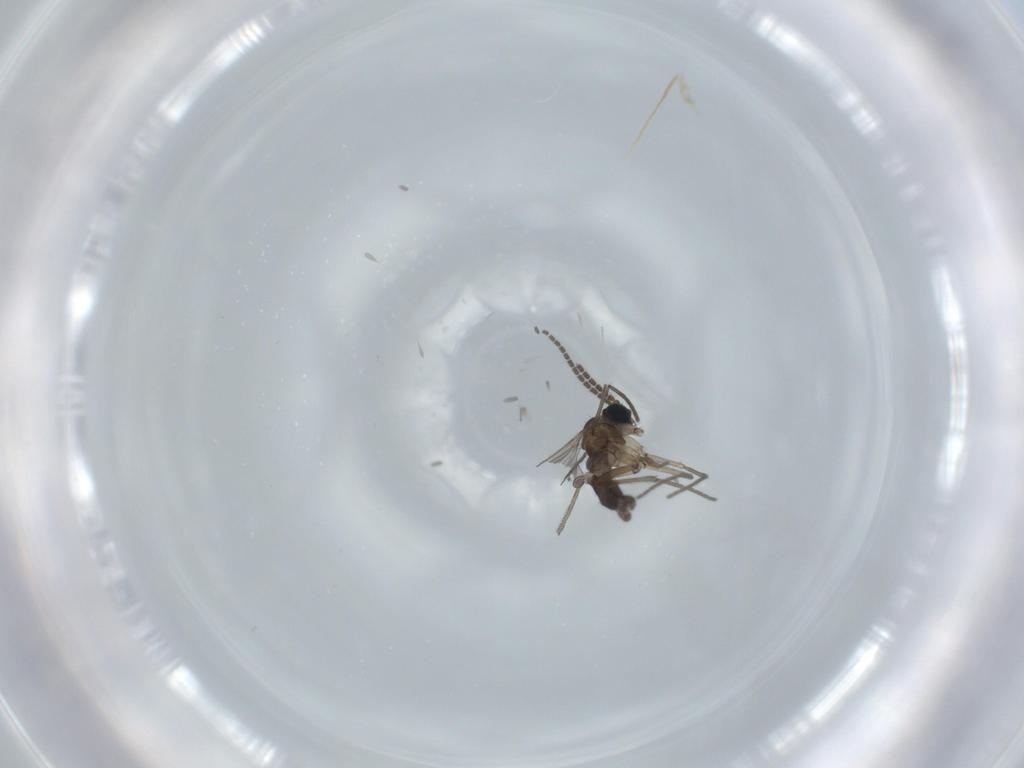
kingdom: Animalia
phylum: Arthropoda
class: Insecta
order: Diptera
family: Sciaridae
